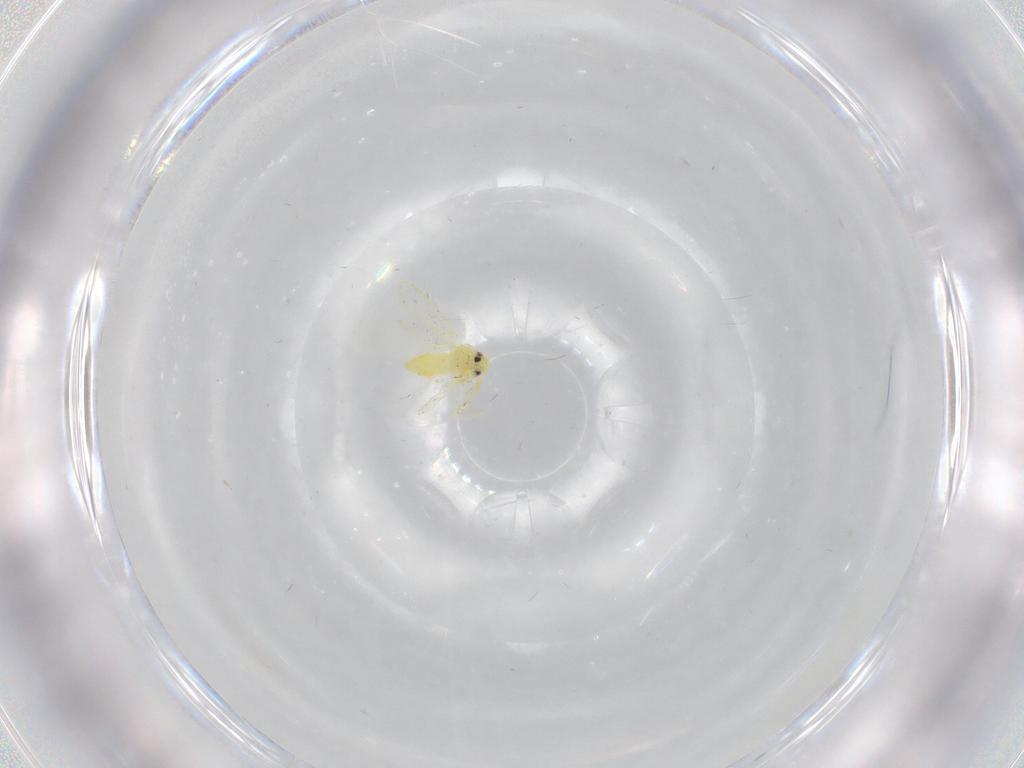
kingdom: Animalia
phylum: Arthropoda
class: Insecta
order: Hemiptera
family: Aleyrodidae
